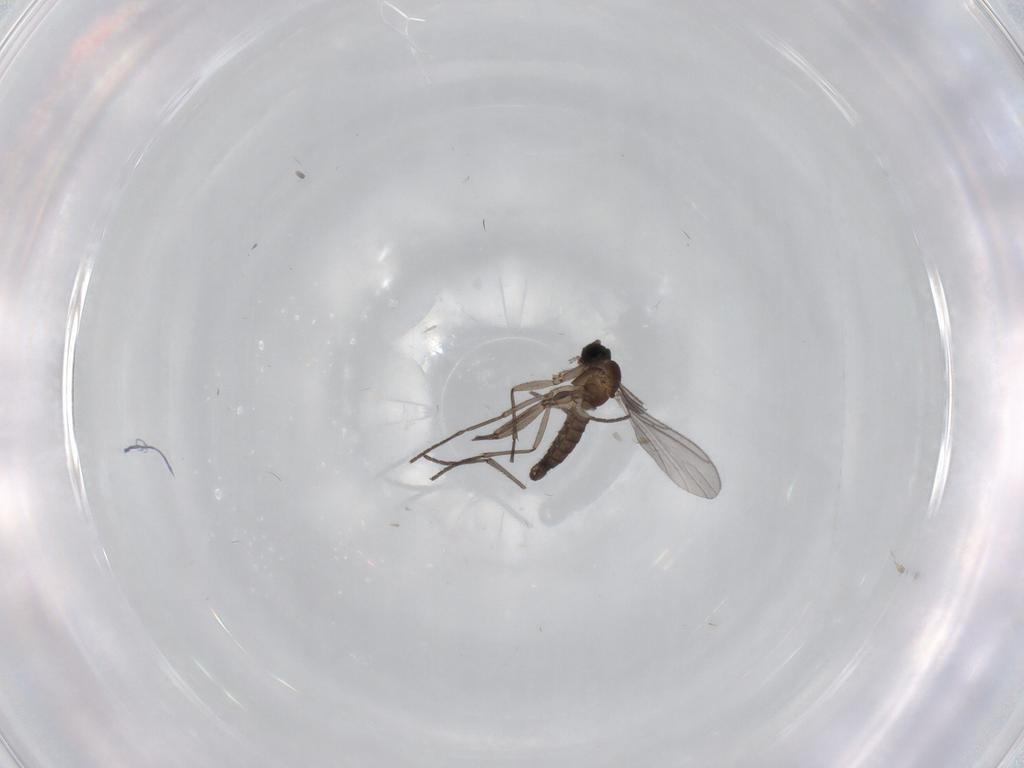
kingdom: Animalia
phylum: Arthropoda
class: Insecta
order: Diptera
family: Sciaridae
